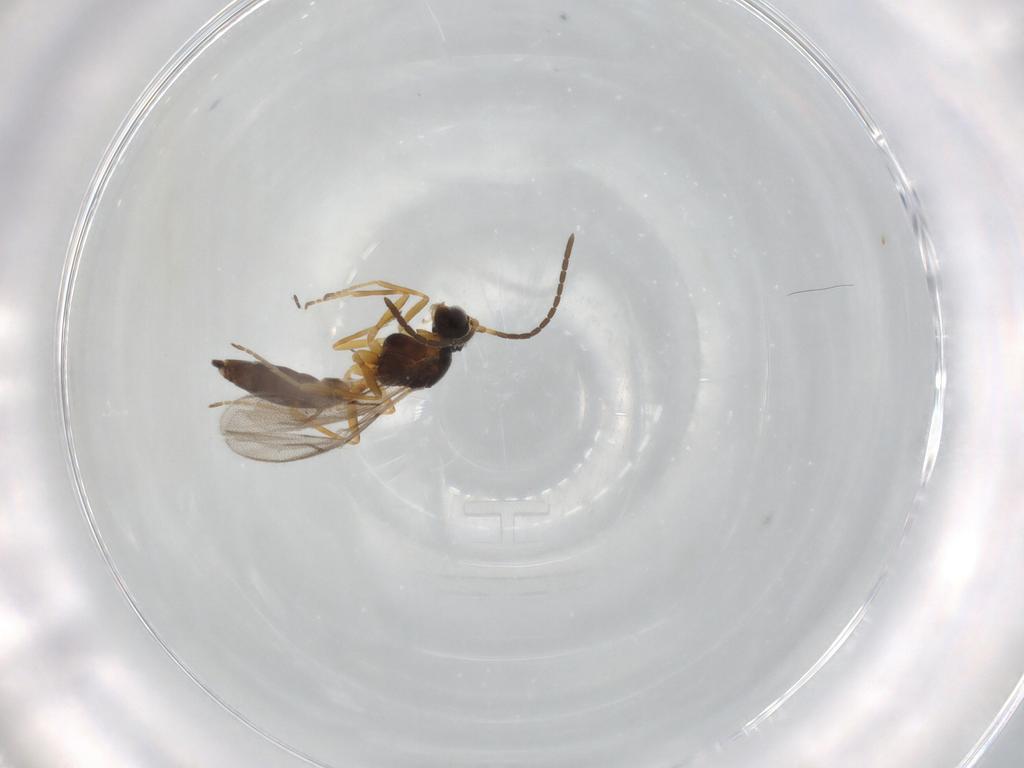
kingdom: Animalia
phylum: Arthropoda
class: Insecta
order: Hymenoptera
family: Braconidae
